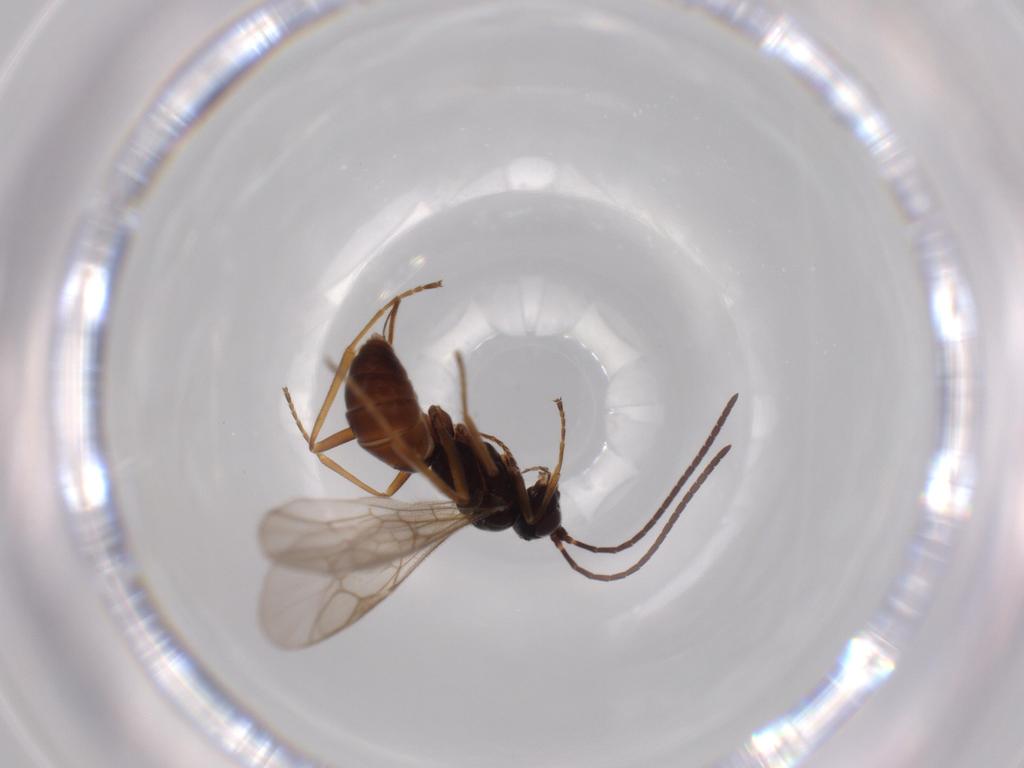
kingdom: Animalia
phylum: Arthropoda
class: Insecta
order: Hymenoptera
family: Ichneumonidae
